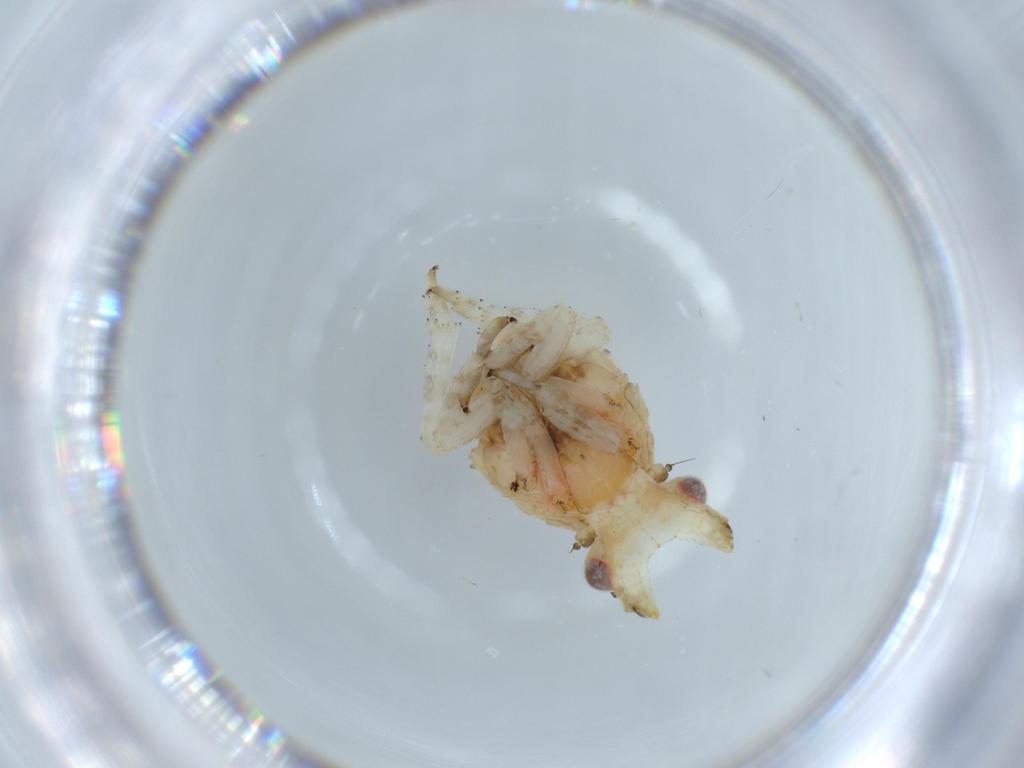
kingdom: Animalia
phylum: Arthropoda
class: Insecta
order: Hemiptera
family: Fulgoridae
